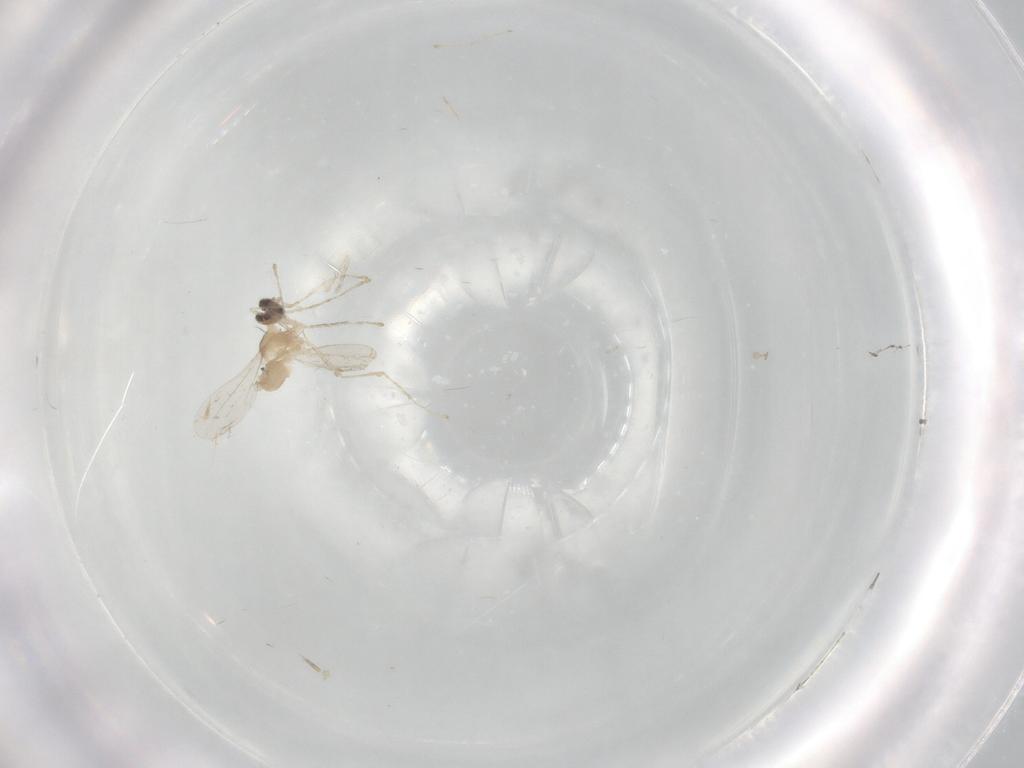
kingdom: Animalia
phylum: Arthropoda
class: Insecta
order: Diptera
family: Cecidomyiidae
